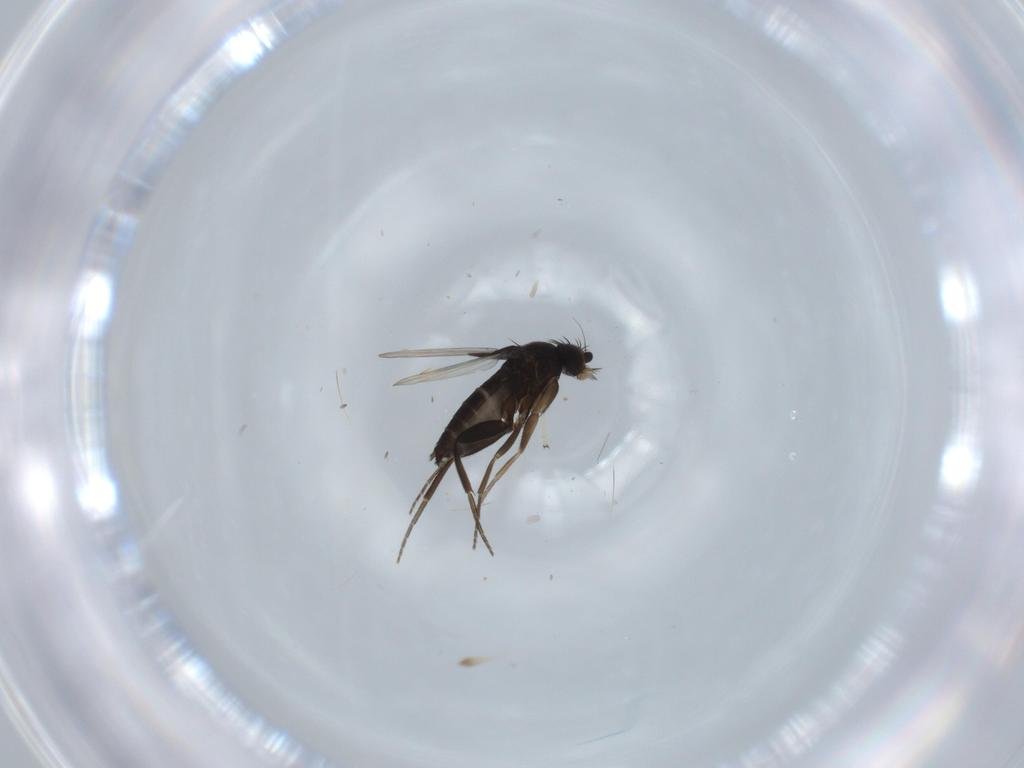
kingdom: Animalia
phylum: Arthropoda
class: Insecta
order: Diptera
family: Phoridae
